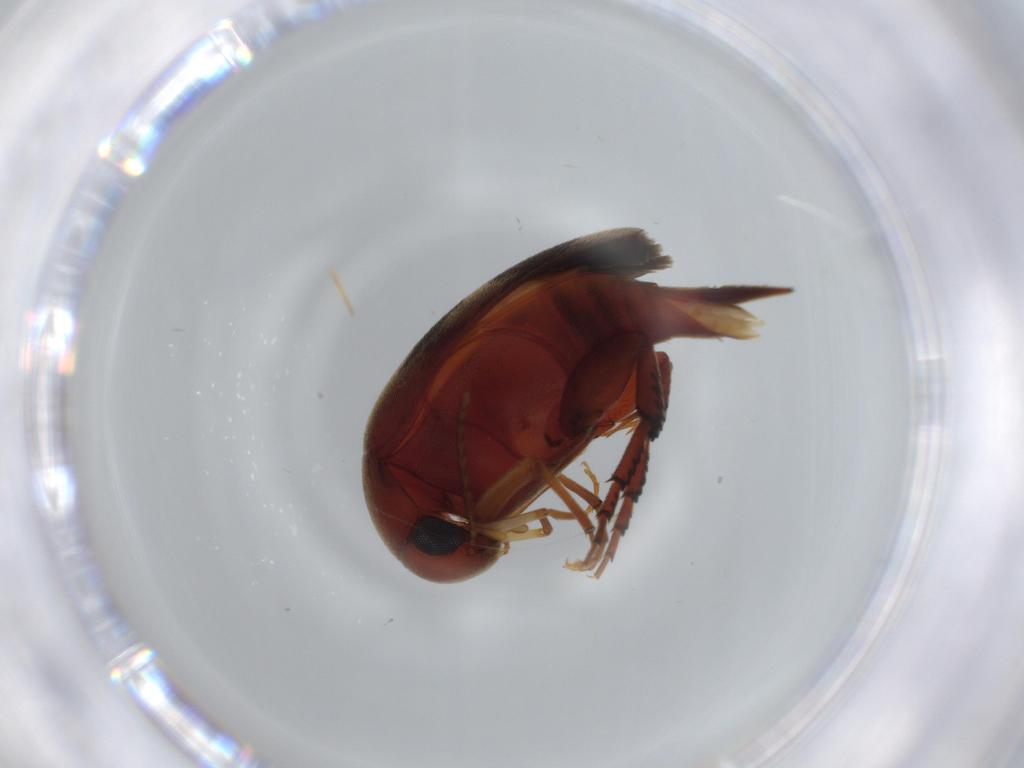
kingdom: Animalia
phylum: Arthropoda
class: Insecta
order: Coleoptera
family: Mordellidae
